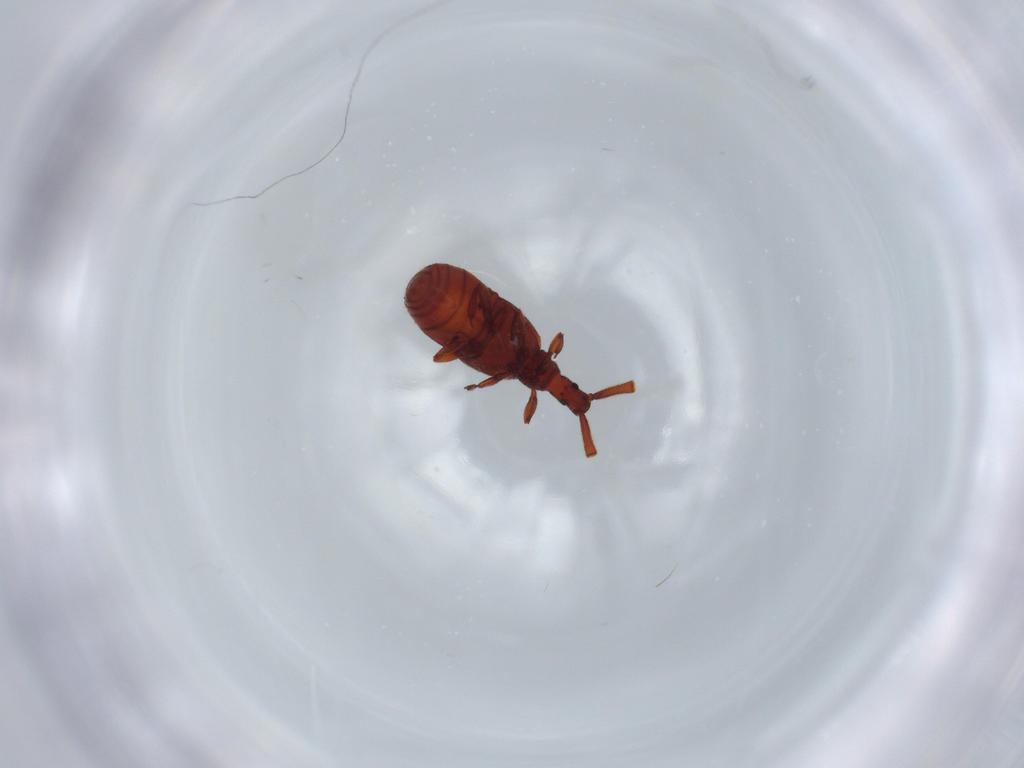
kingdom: Animalia
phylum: Arthropoda
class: Insecta
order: Coleoptera
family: Staphylinidae
